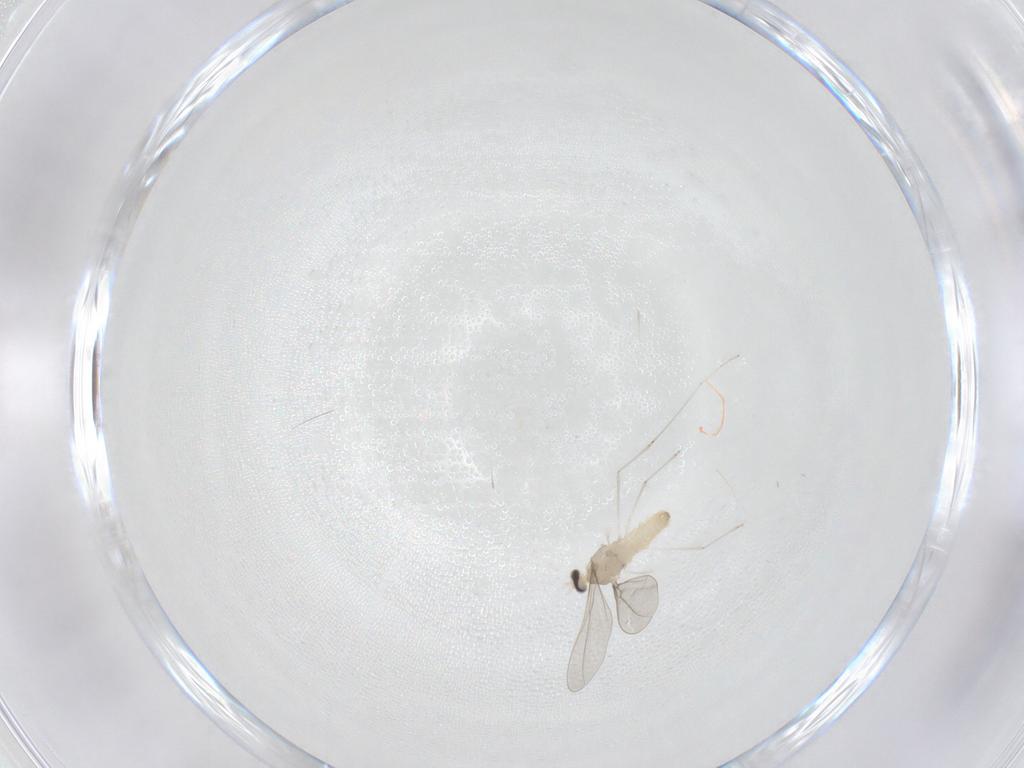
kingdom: Animalia
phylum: Arthropoda
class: Insecta
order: Diptera
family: Cecidomyiidae
